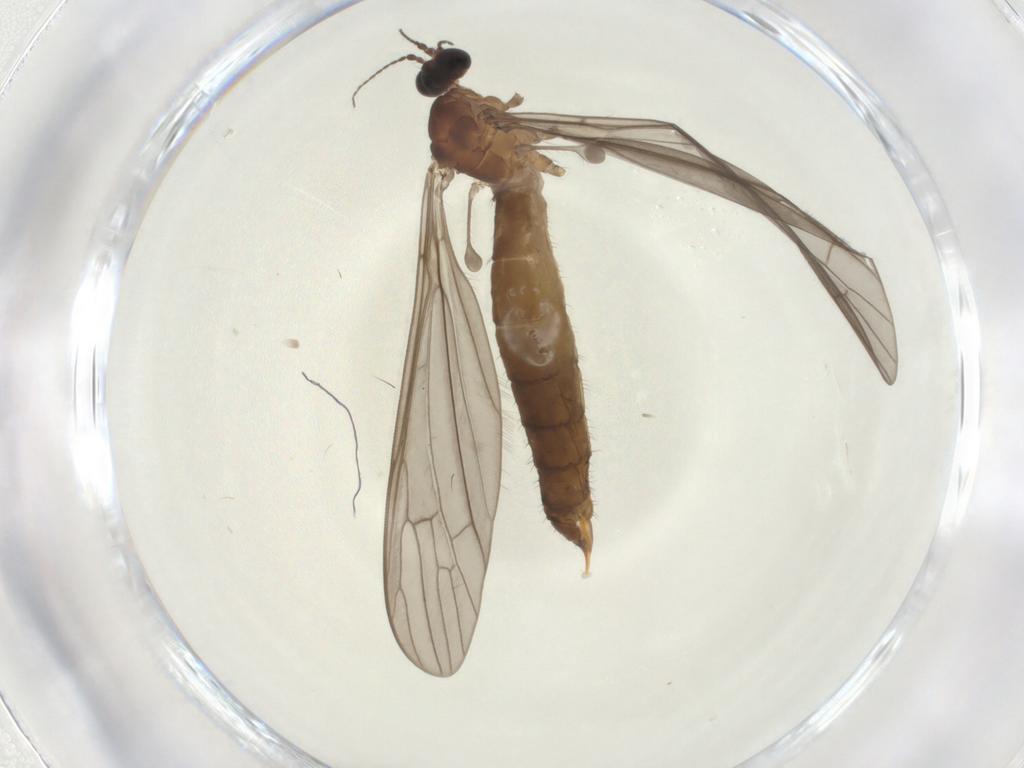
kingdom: Animalia
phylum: Arthropoda
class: Insecta
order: Diptera
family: Limoniidae
